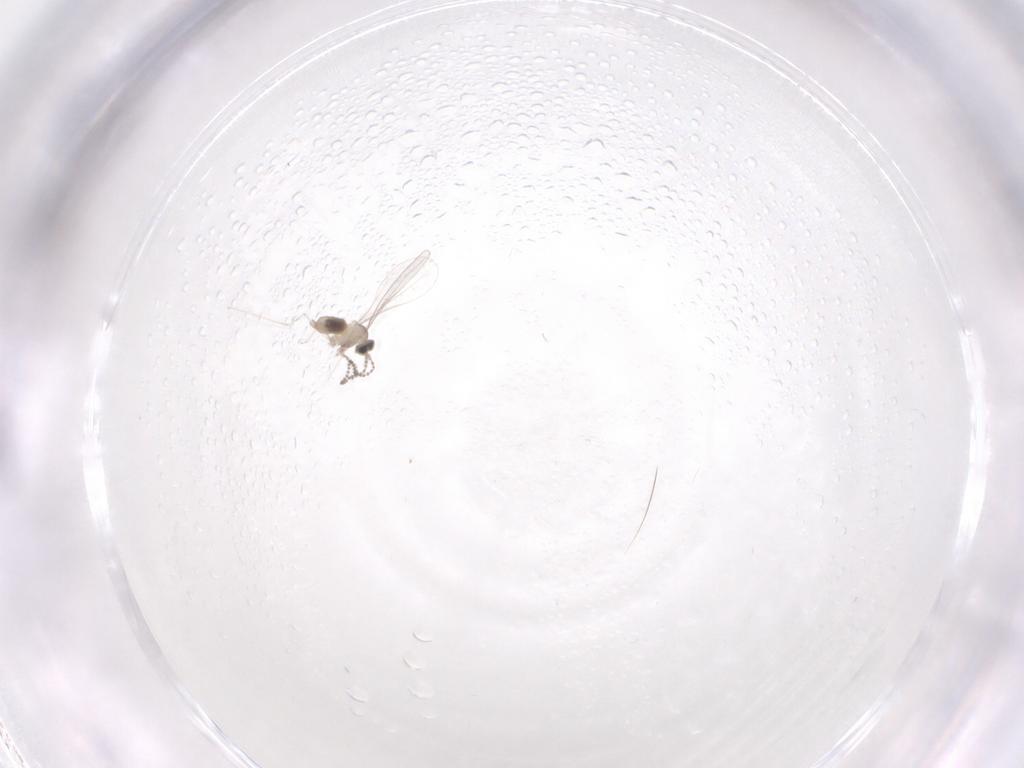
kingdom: Animalia
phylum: Arthropoda
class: Insecta
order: Diptera
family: Cecidomyiidae
